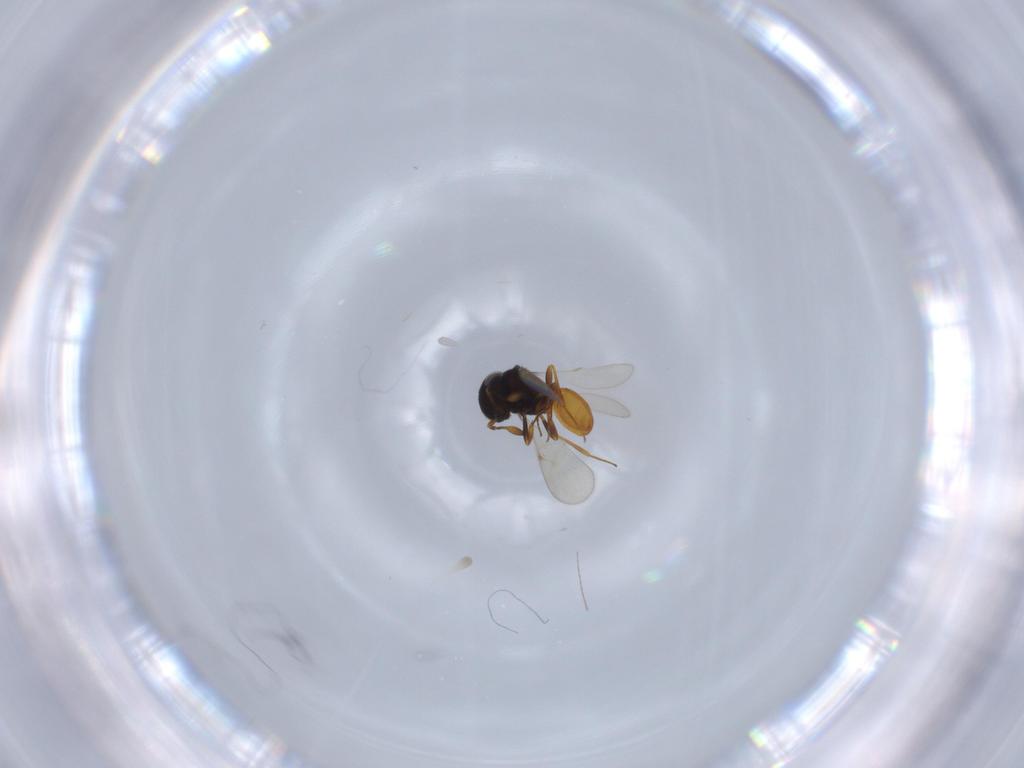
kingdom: Animalia
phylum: Arthropoda
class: Insecta
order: Hymenoptera
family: Scelionidae
